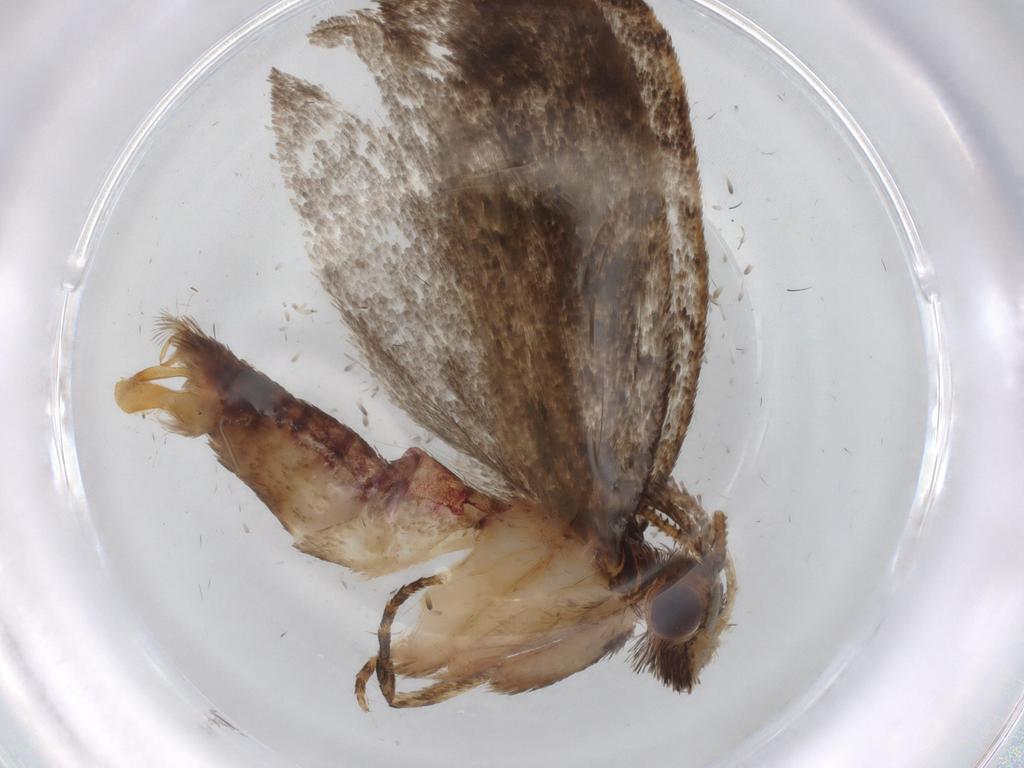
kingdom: Animalia
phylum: Arthropoda
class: Insecta
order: Lepidoptera
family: Tineidae
